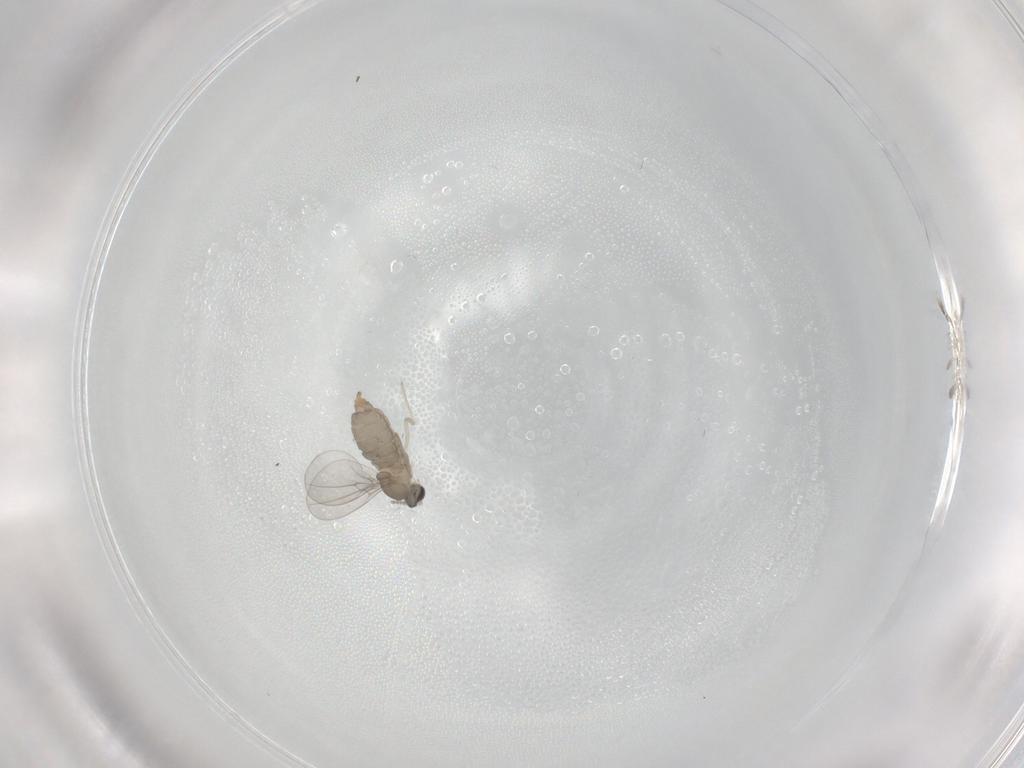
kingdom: Animalia
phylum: Arthropoda
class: Insecta
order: Diptera
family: Cecidomyiidae
